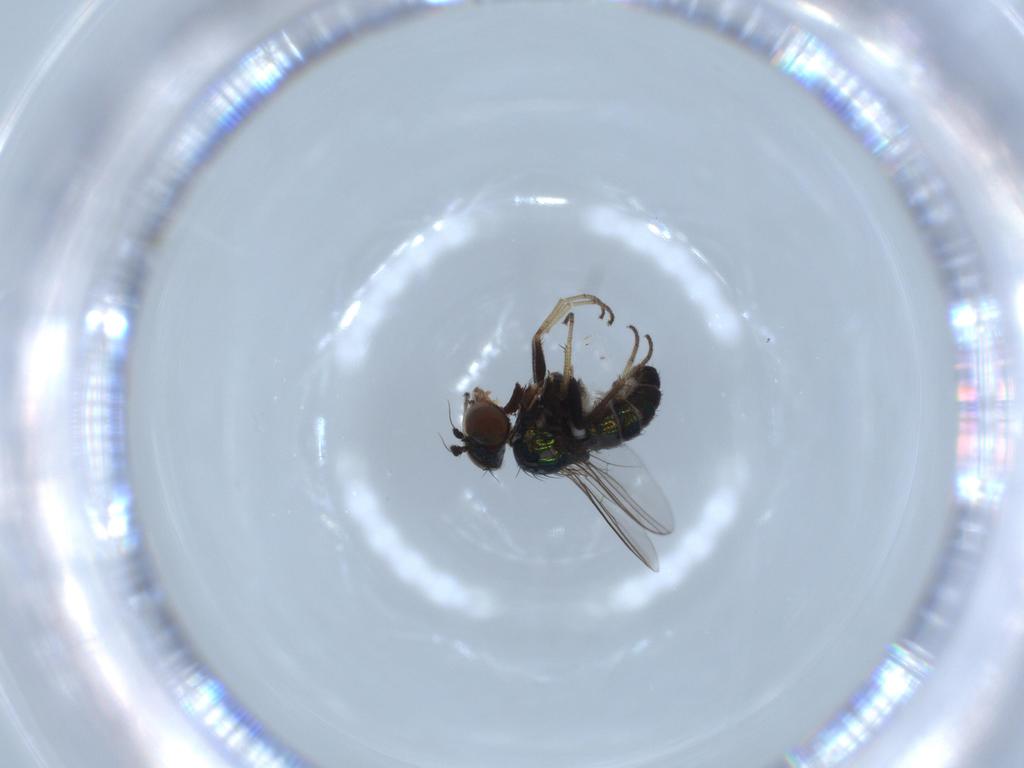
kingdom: Animalia
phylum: Arthropoda
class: Insecta
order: Diptera
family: Dolichopodidae
